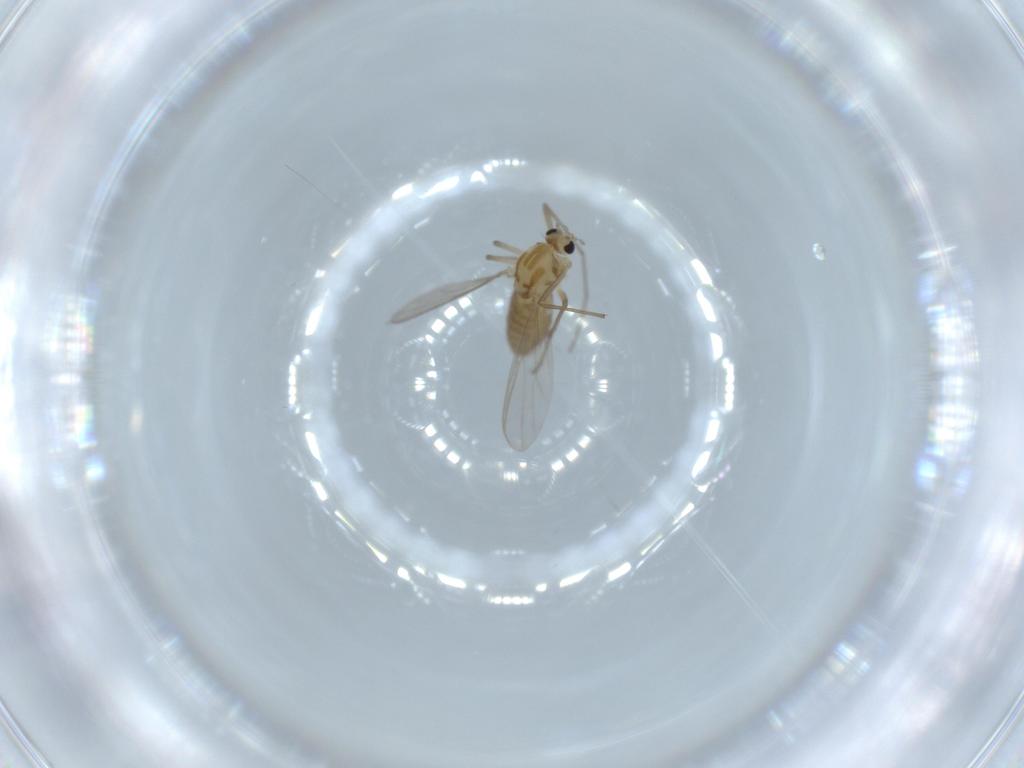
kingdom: Animalia
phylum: Arthropoda
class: Insecta
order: Diptera
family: Chironomidae
